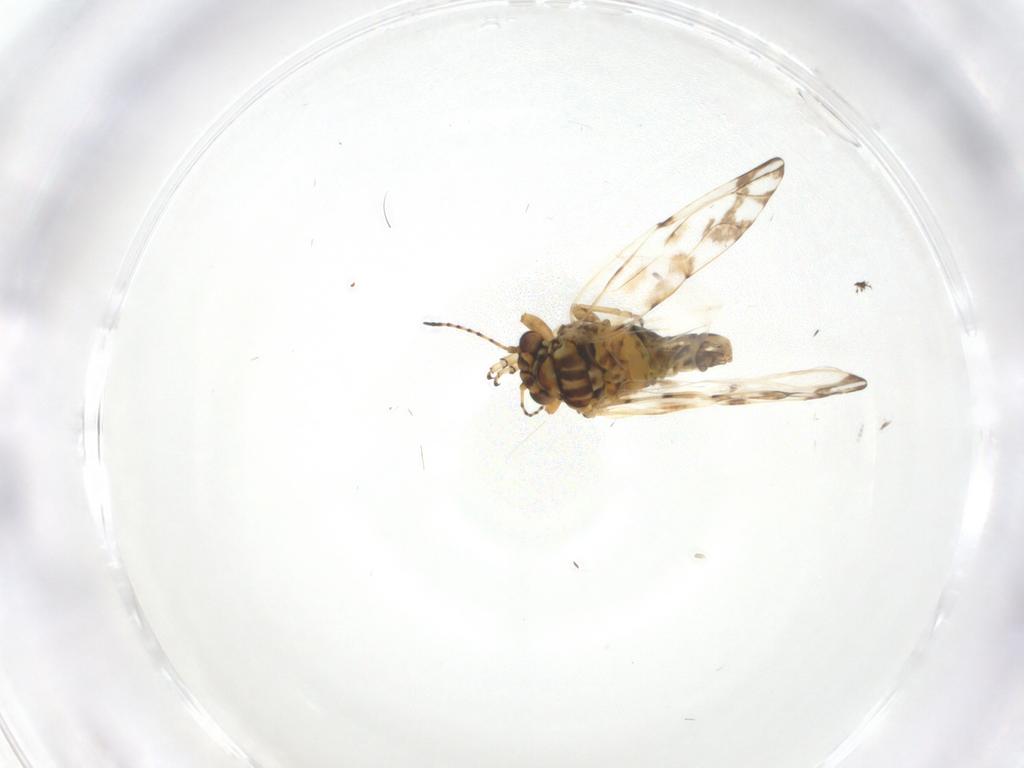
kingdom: Animalia
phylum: Arthropoda
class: Insecta
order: Hemiptera
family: Psylloidea_incertae_sedis
